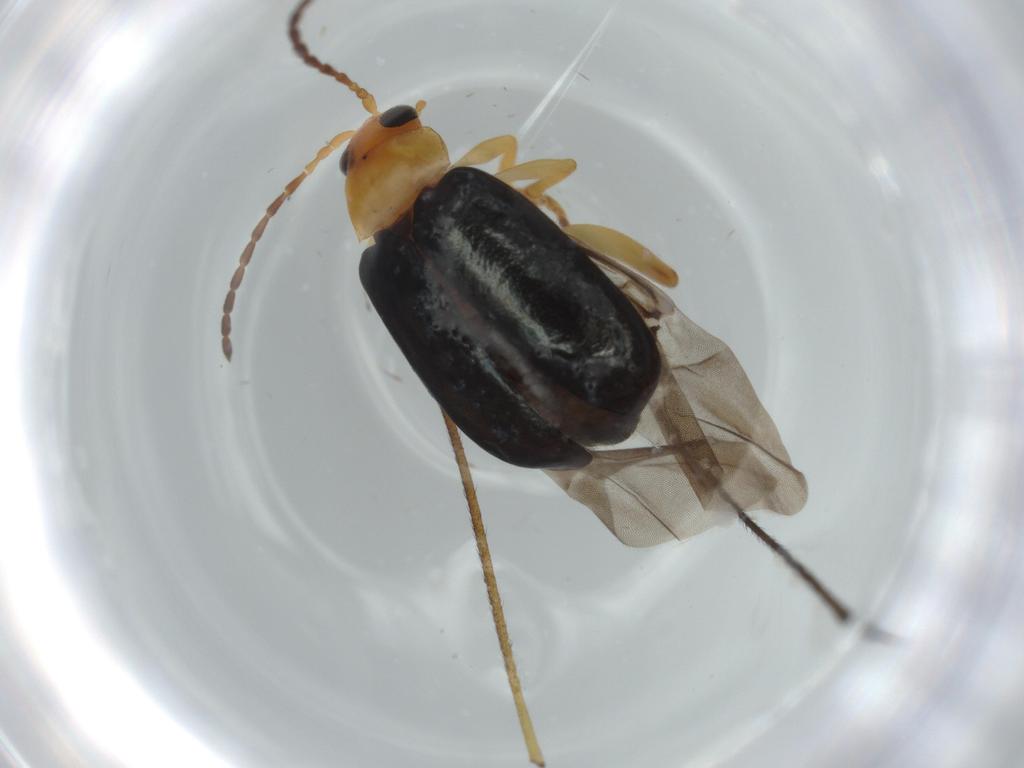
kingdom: Animalia
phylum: Arthropoda
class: Insecta
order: Coleoptera
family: Chrysomelidae
